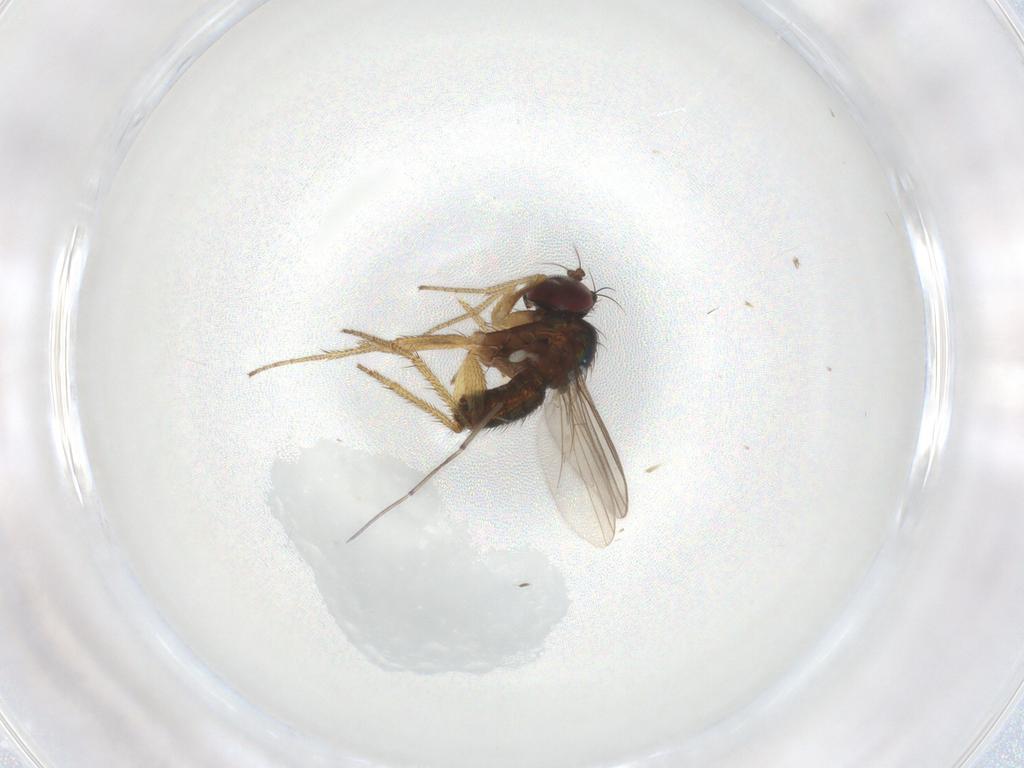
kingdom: Animalia
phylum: Arthropoda
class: Insecta
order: Diptera
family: Dolichopodidae
